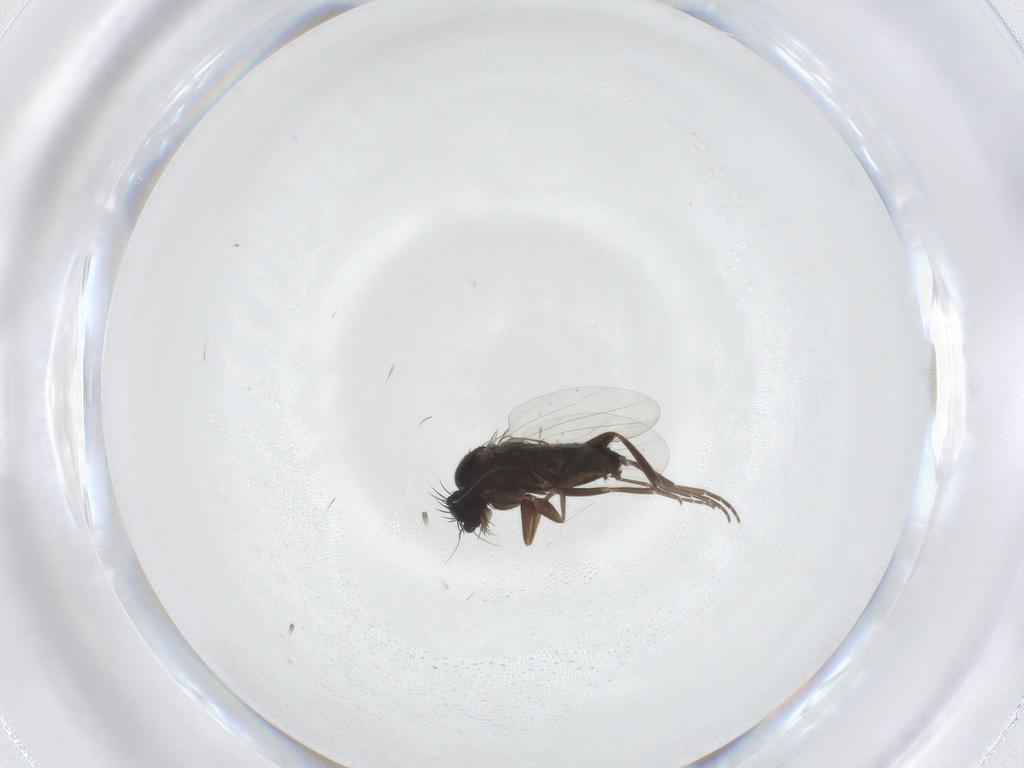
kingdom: Animalia
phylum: Arthropoda
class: Insecta
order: Diptera
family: Phoridae
